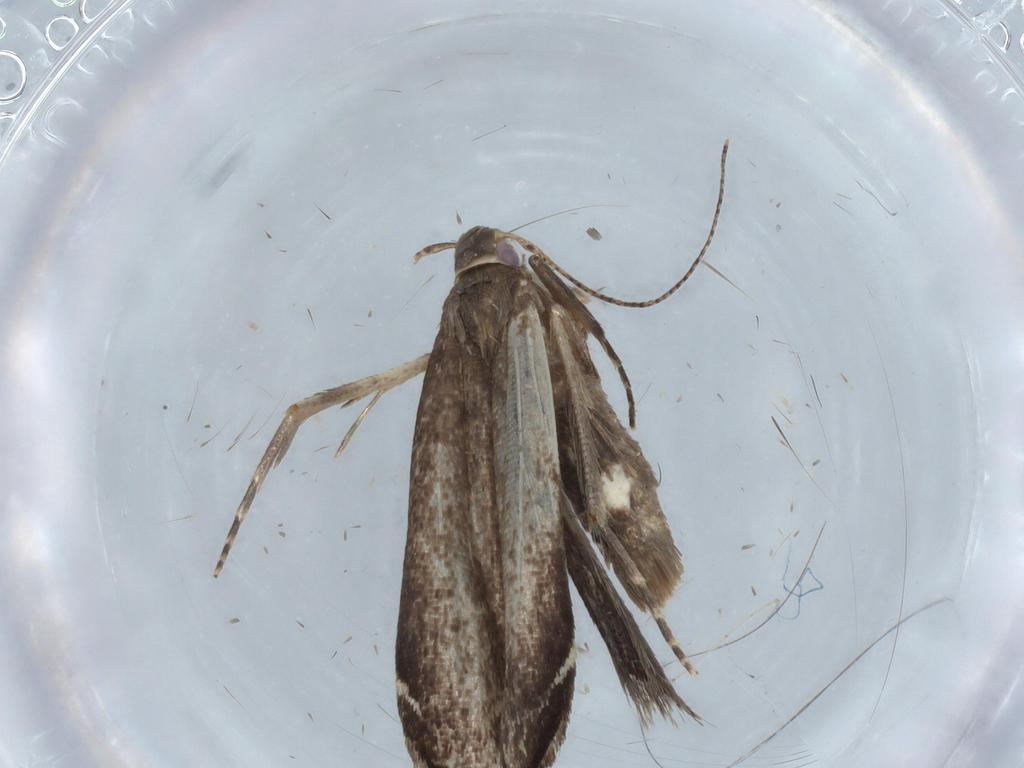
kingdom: Animalia
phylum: Arthropoda
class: Insecta
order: Lepidoptera
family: Gelechiidae
